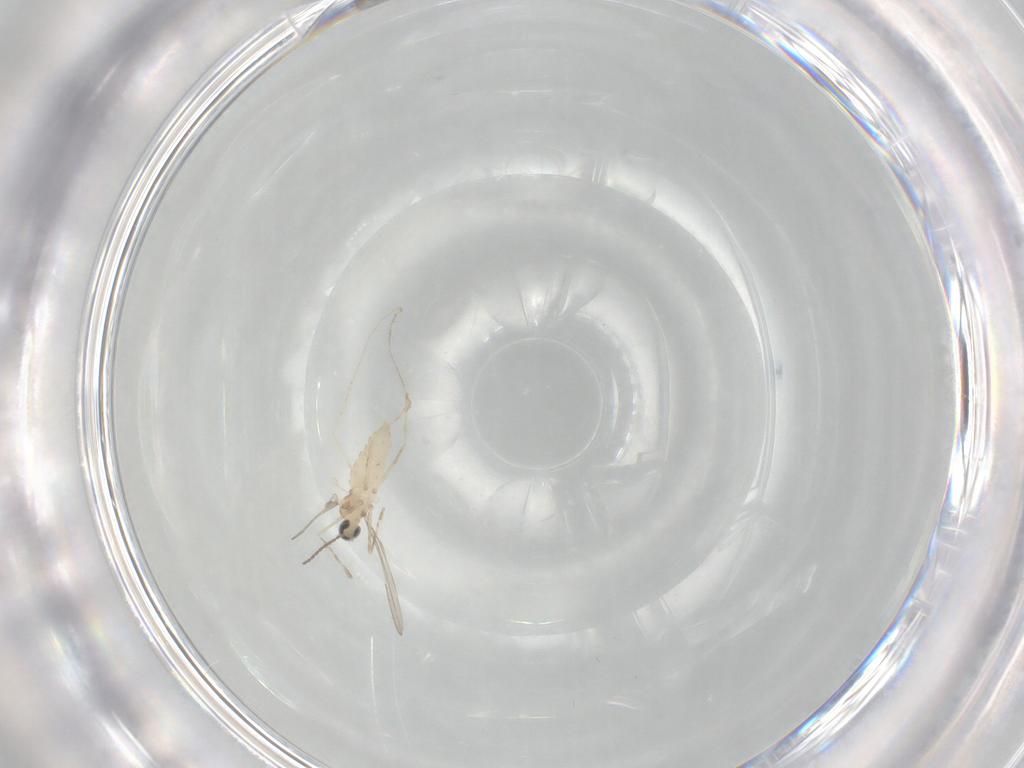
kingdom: Animalia
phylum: Arthropoda
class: Insecta
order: Diptera
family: Cecidomyiidae
